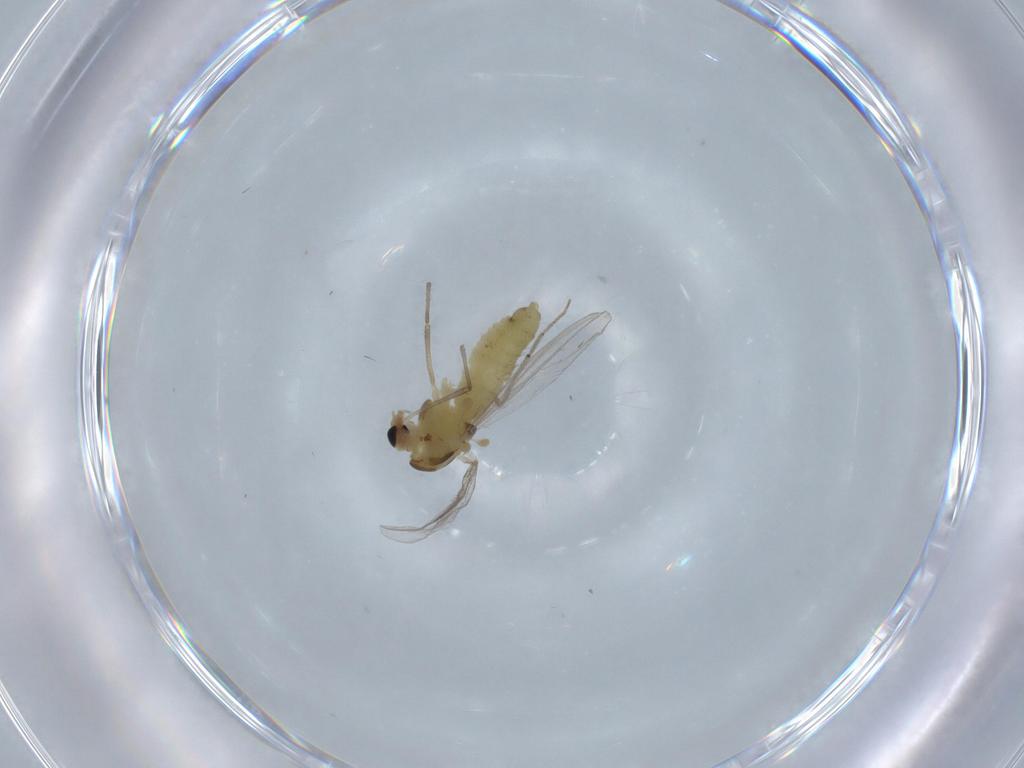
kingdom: Animalia
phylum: Arthropoda
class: Insecta
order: Diptera
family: Chironomidae
